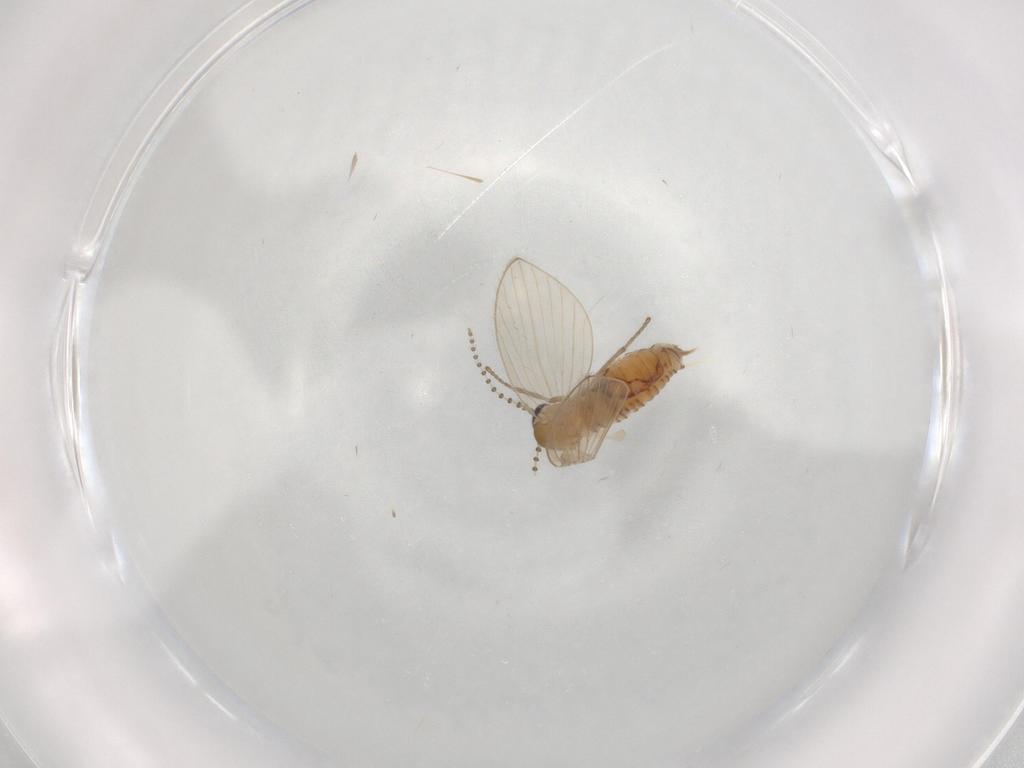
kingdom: Animalia
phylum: Arthropoda
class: Insecta
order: Diptera
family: Psychodidae
